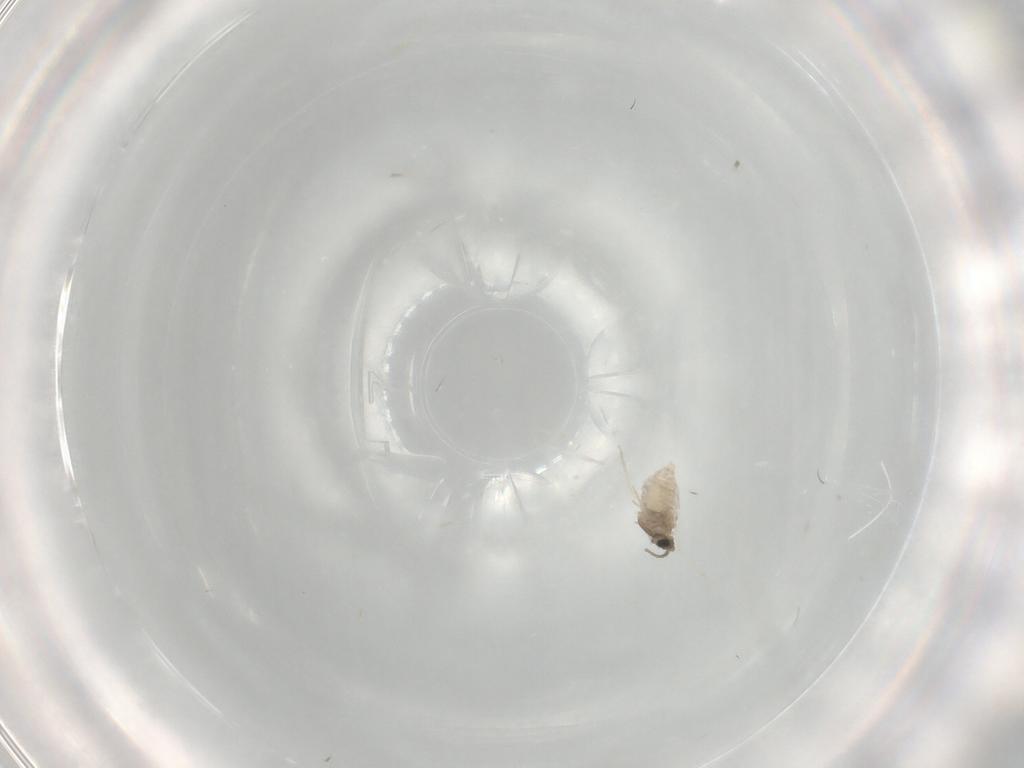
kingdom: Animalia
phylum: Arthropoda
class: Insecta
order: Diptera
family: Cecidomyiidae
